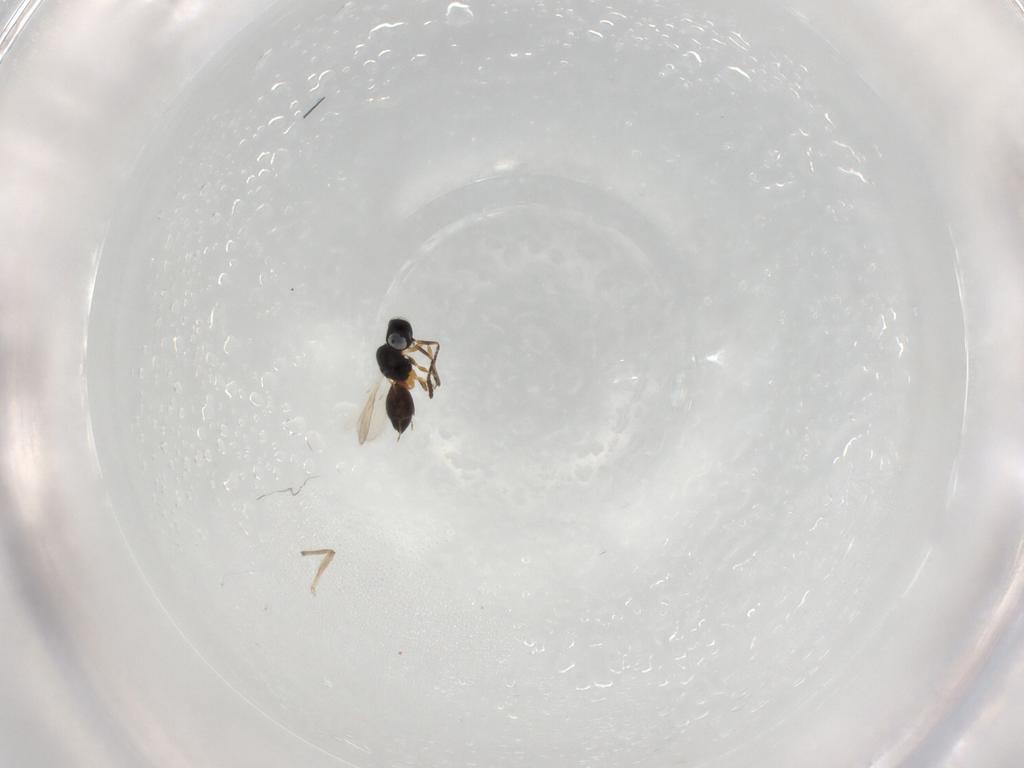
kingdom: Animalia
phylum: Arthropoda
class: Insecta
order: Hymenoptera
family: Scelionidae
